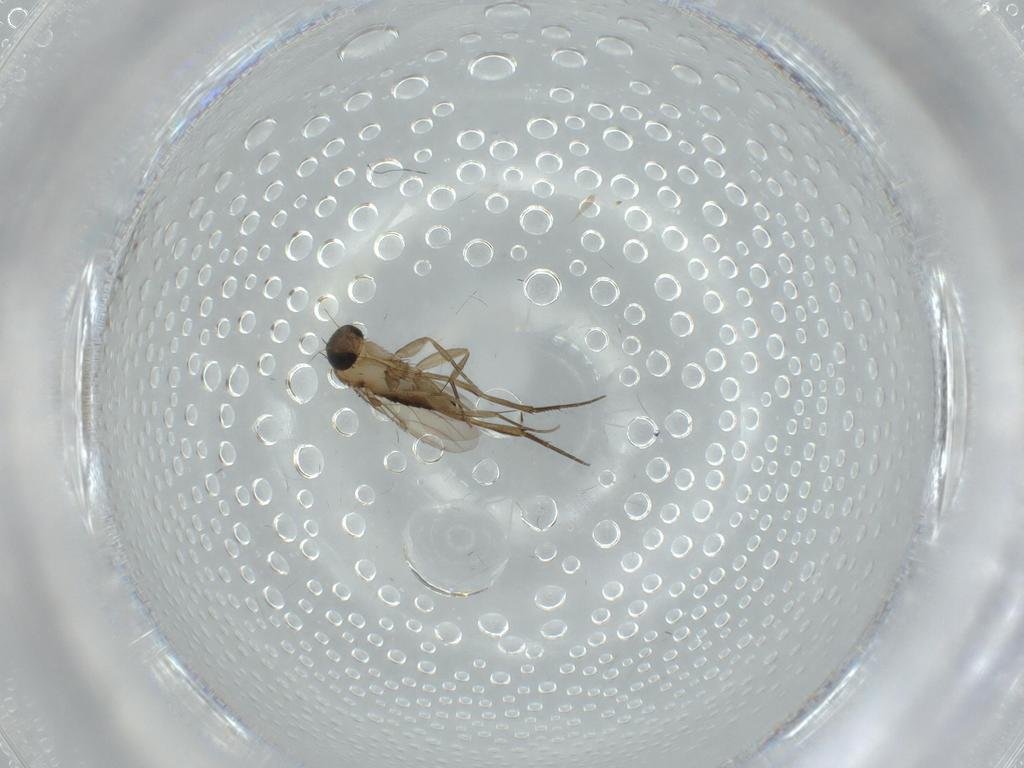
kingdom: Animalia
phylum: Arthropoda
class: Insecta
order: Diptera
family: Phoridae
